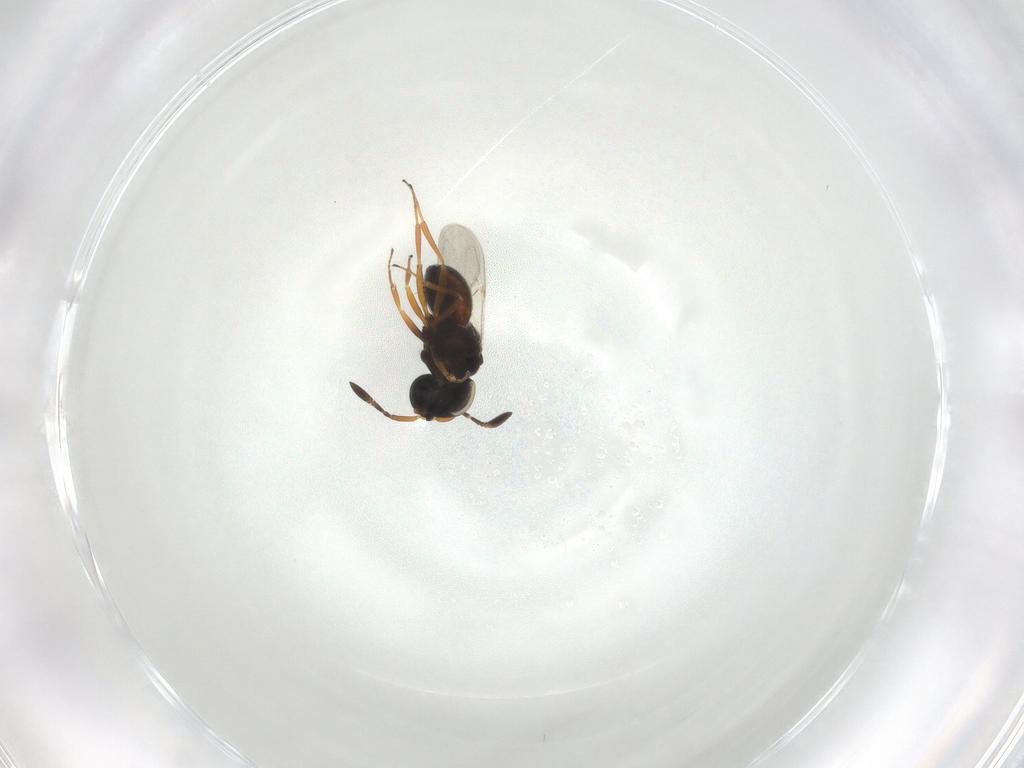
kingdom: Animalia
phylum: Arthropoda
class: Insecta
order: Hymenoptera
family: Scelionidae
